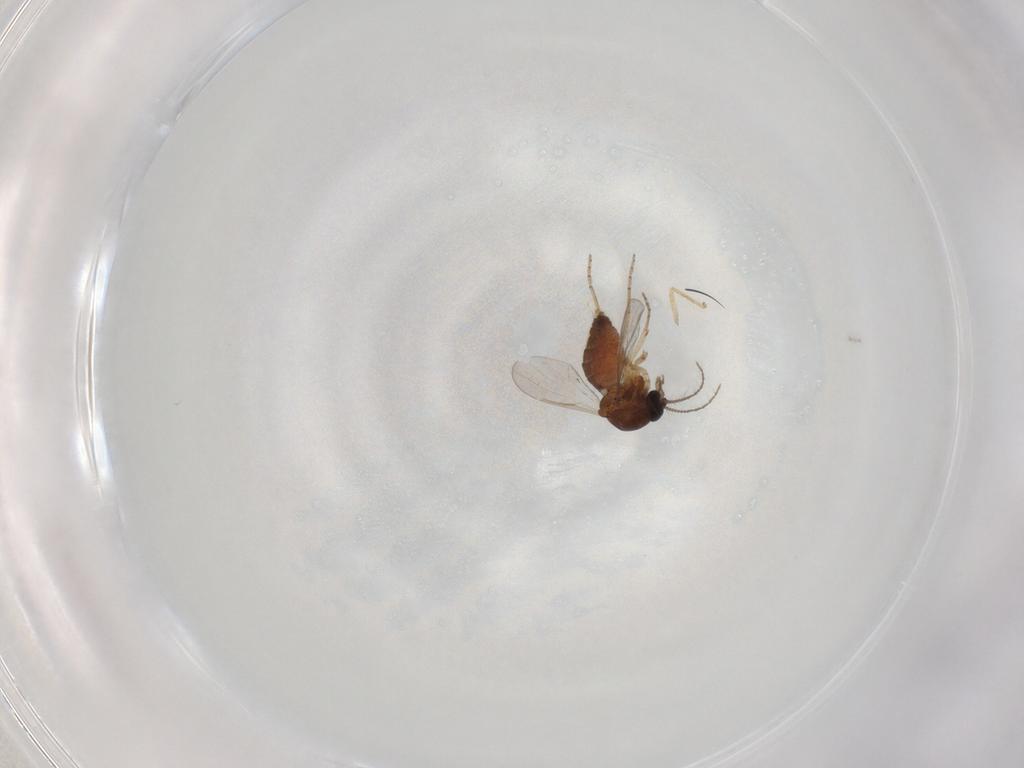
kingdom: Animalia
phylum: Arthropoda
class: Insecta
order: Diptera
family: Ceratopogonidae
